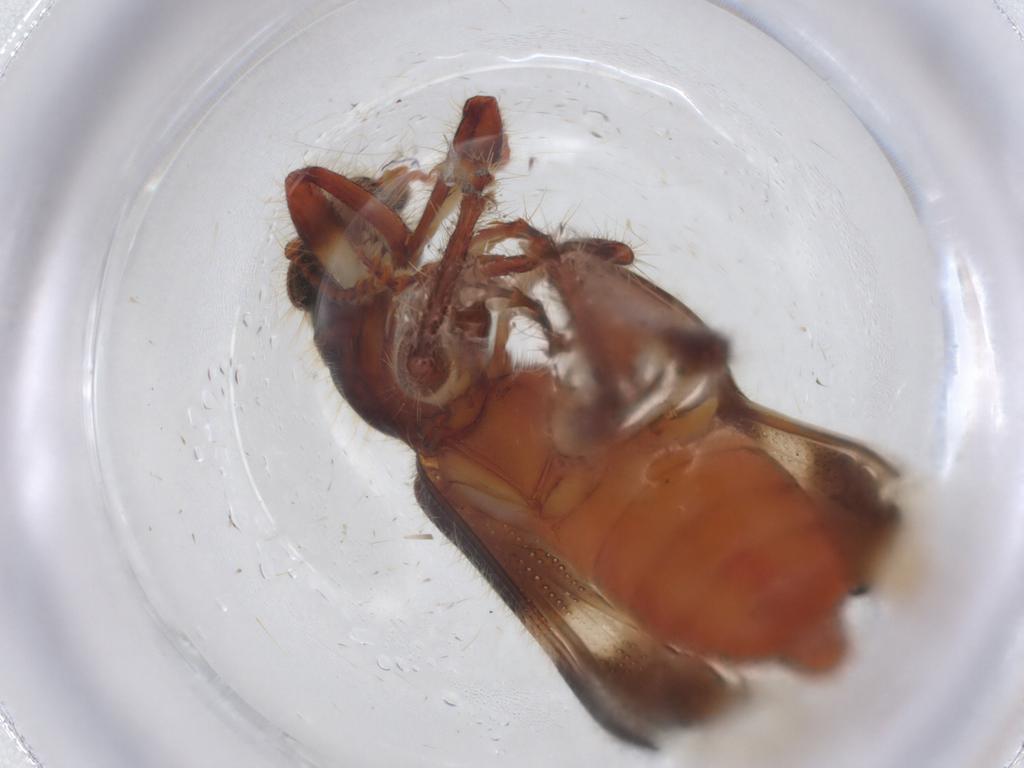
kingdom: Animalia
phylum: Arthropoda
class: Insecta
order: Coleoptera
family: Cleridae
